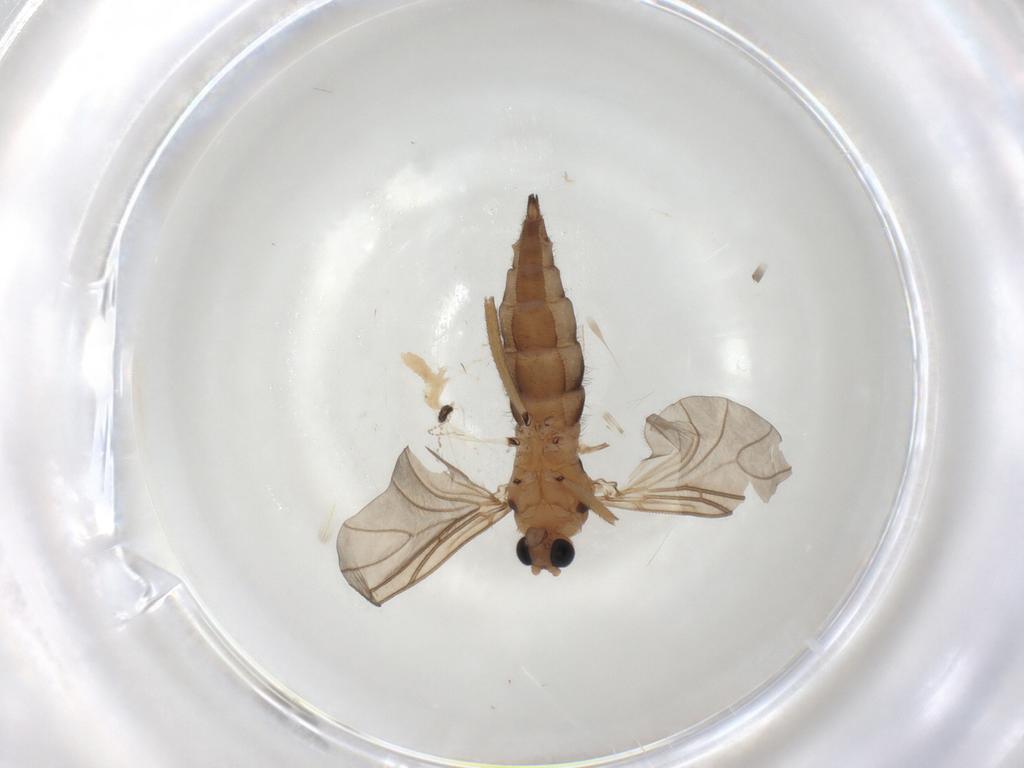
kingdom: Animalia
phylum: Arthropoda
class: Insecta
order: Diptera
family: Sciaridae
